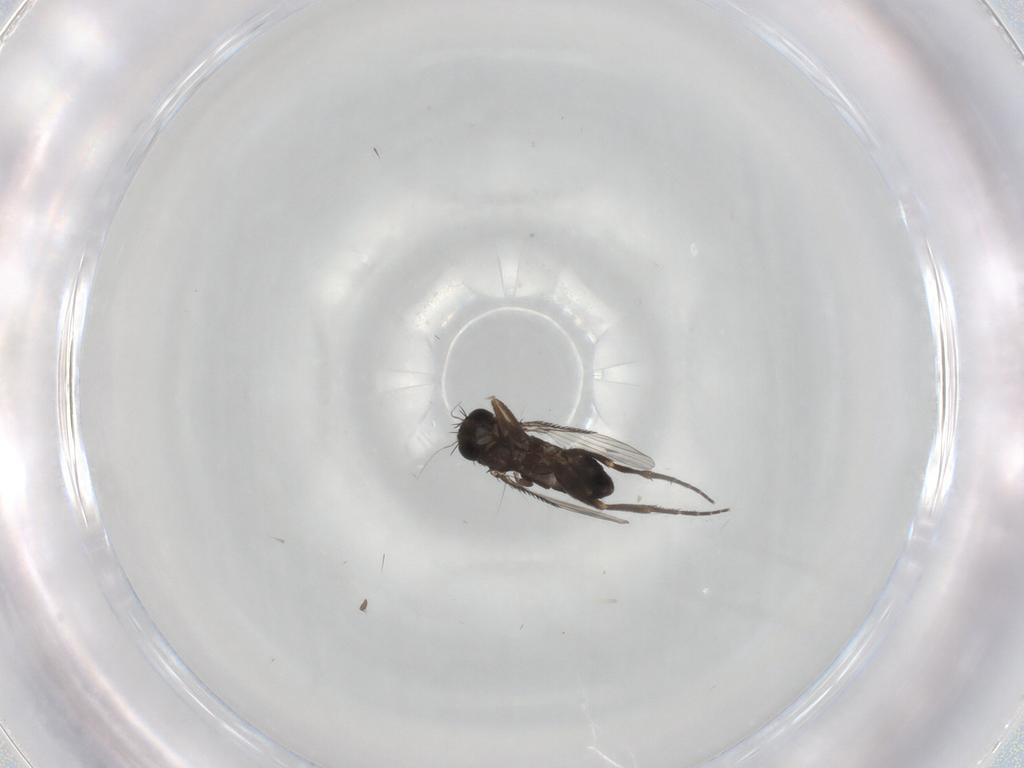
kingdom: Animalia
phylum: Arthropoda
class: Insecta
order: Diptera
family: Phoridae
